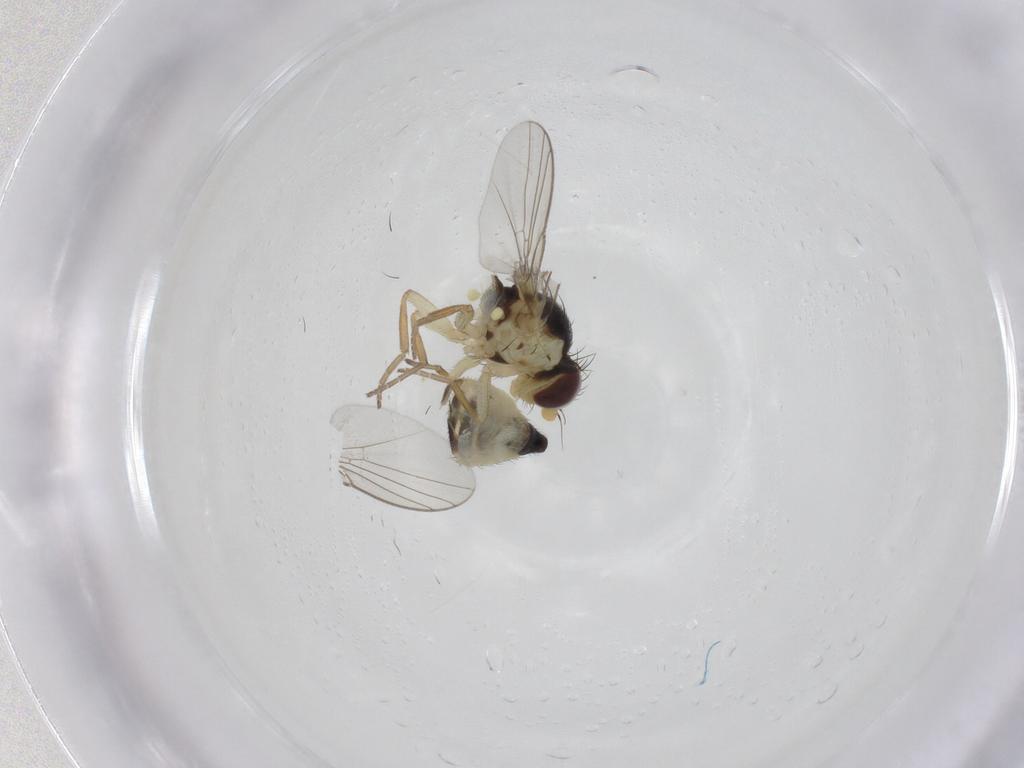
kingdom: Animalia
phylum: Arthropoda
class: Insecta
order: Diptera
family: Agromyzidae
